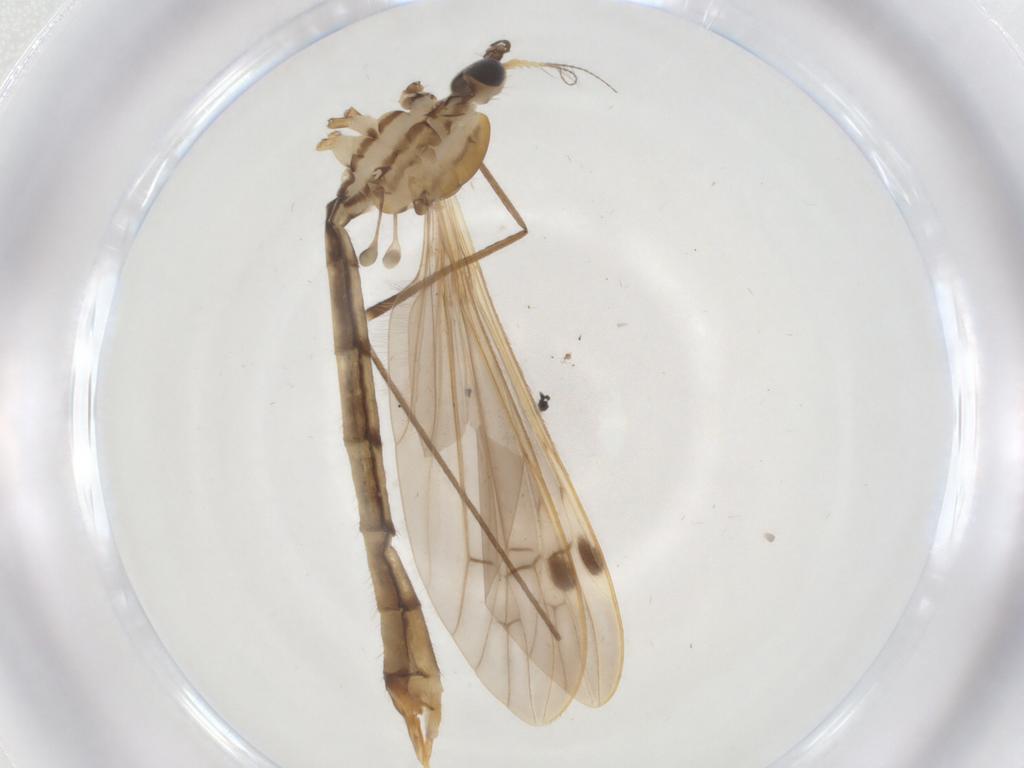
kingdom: Animalia
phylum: Arthropoda
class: Insecta
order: Diptera
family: Limoniidae
